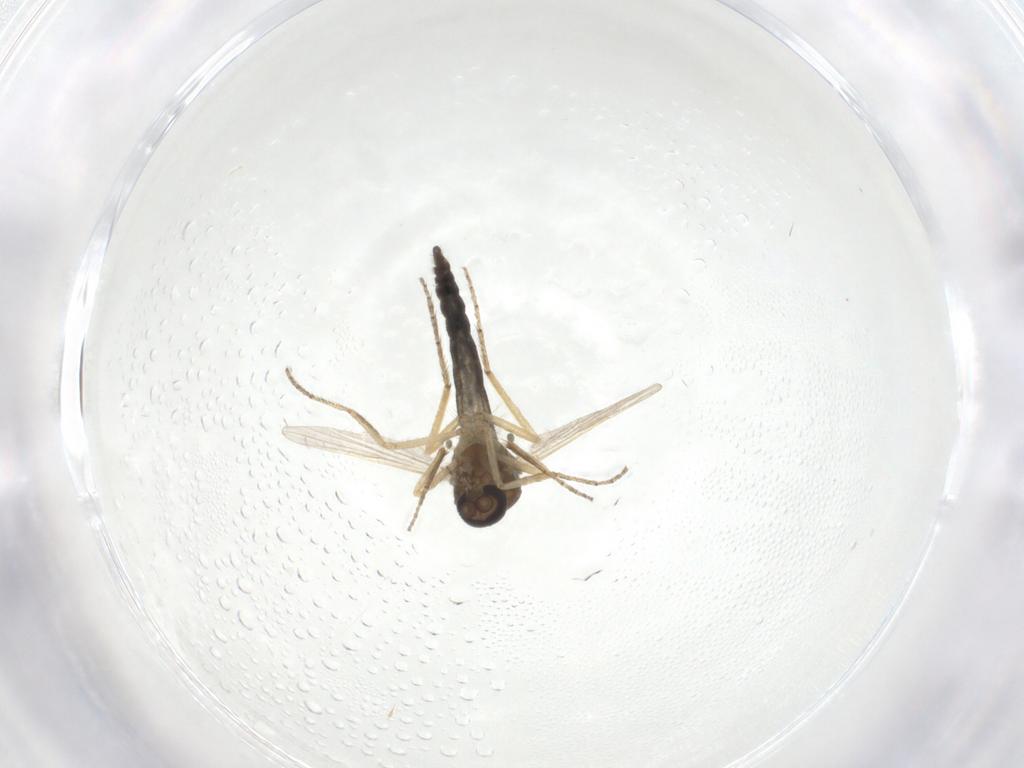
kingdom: Animalia
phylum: Arthropoda
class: Insecta
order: Diptera
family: Ceratopogonidae
